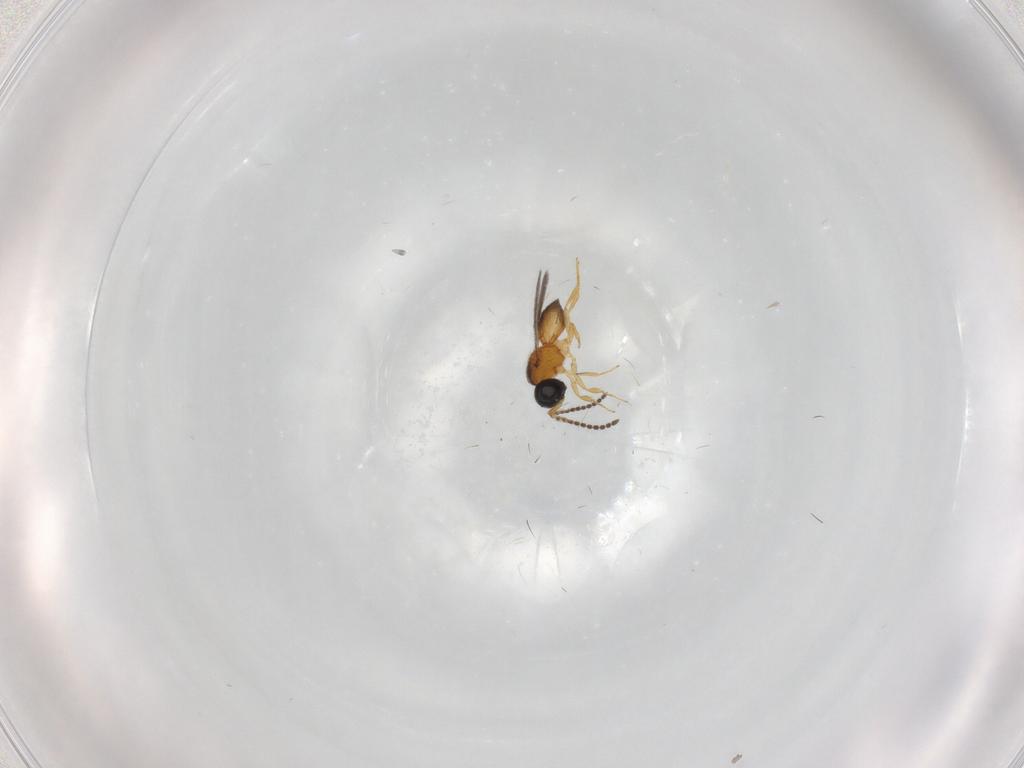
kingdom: Animalia
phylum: Arthropoda
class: Insecta
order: Hymenoptera
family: Scelionidae
